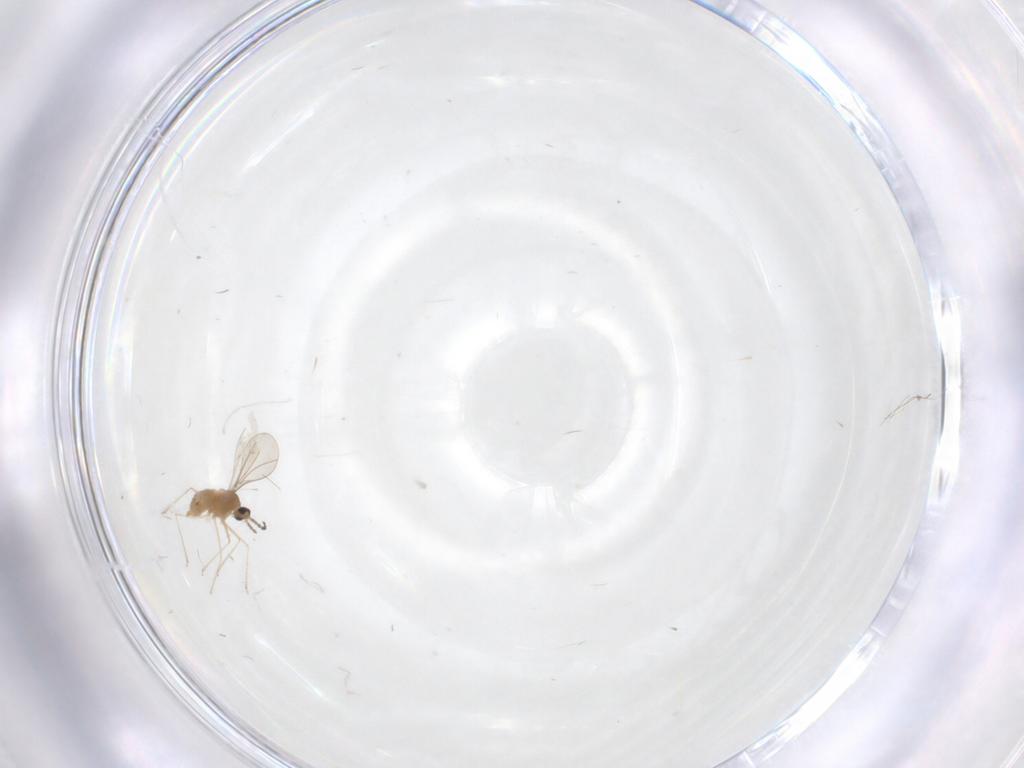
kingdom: Animalia
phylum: Arthropoda
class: Insecta
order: Diptera
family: Cecidomyiidae
